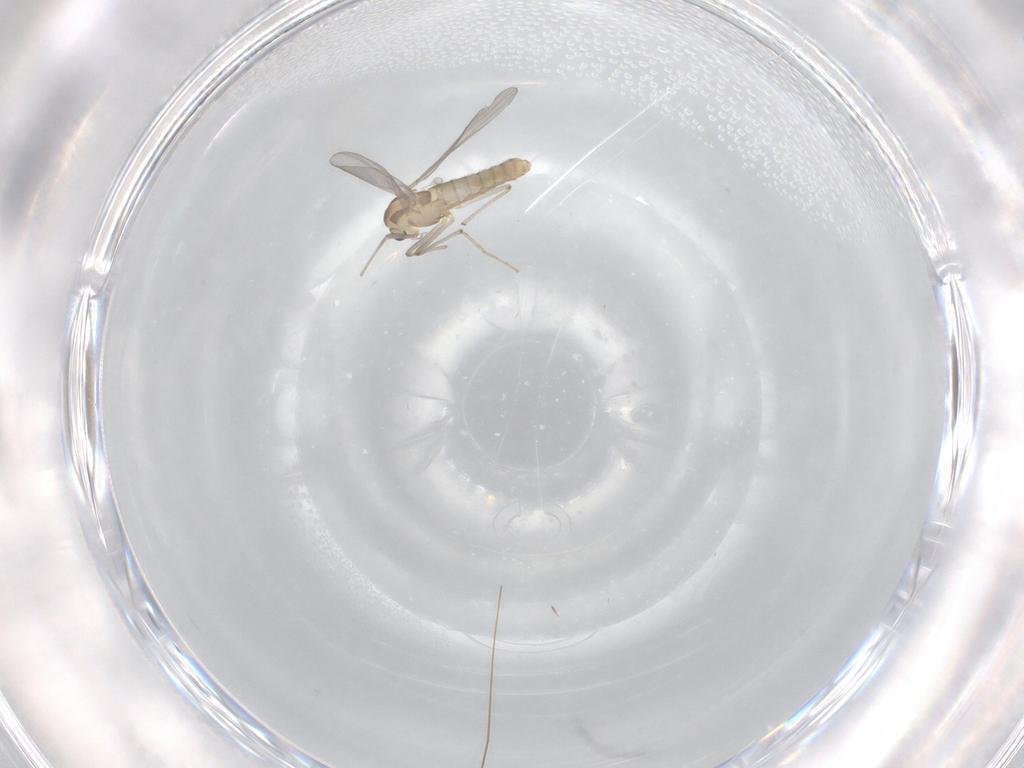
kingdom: Animalia
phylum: Arthropoda
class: Insecta
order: Diptera
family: Chironomidae
